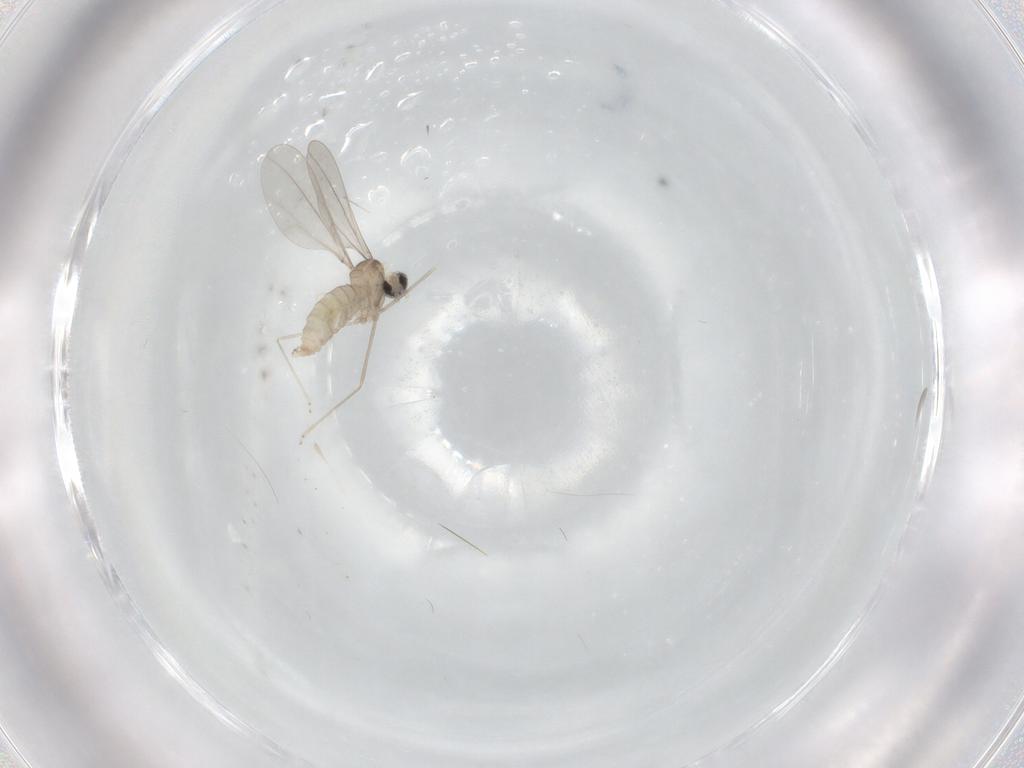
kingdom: Animalia
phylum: Arthropoda
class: Insecta
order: Diptera
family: Cecidomyiidae
